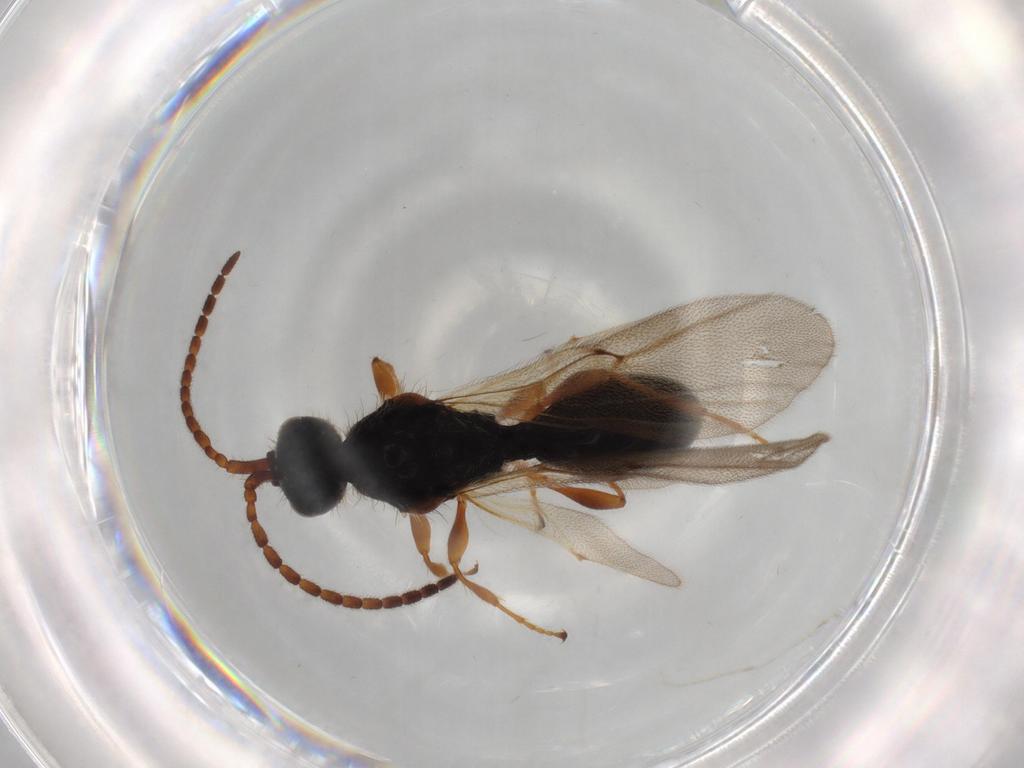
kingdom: Animalia
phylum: Arthropoda
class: Insecta
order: Hymenoptera
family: Diapriidae
